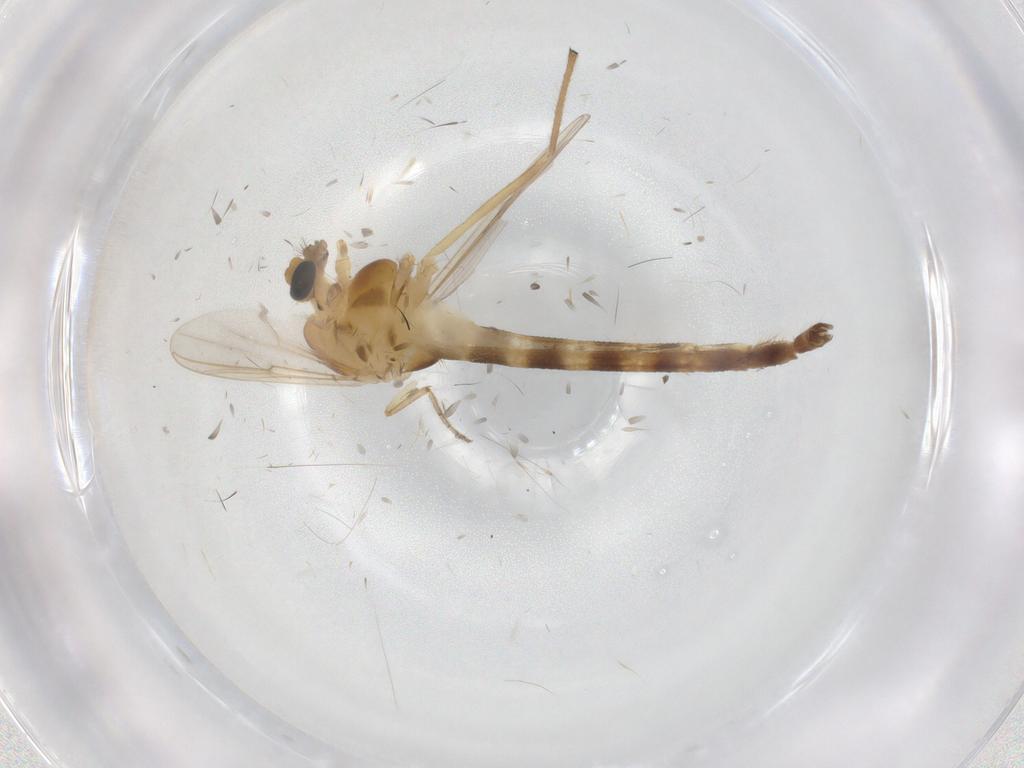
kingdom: Animalia
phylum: Arthropoda
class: Insecta
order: Diptera
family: Chironomidae
